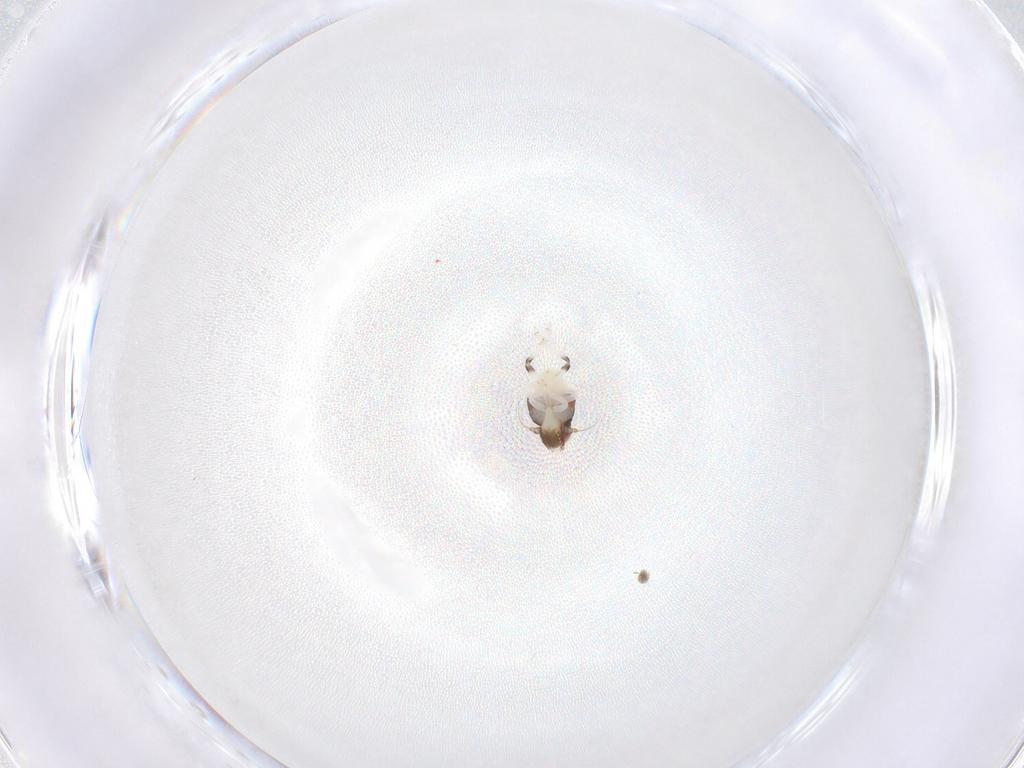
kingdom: Animalia
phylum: Arthropoda
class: Insecta
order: Diptera
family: Cecidomyiidae
